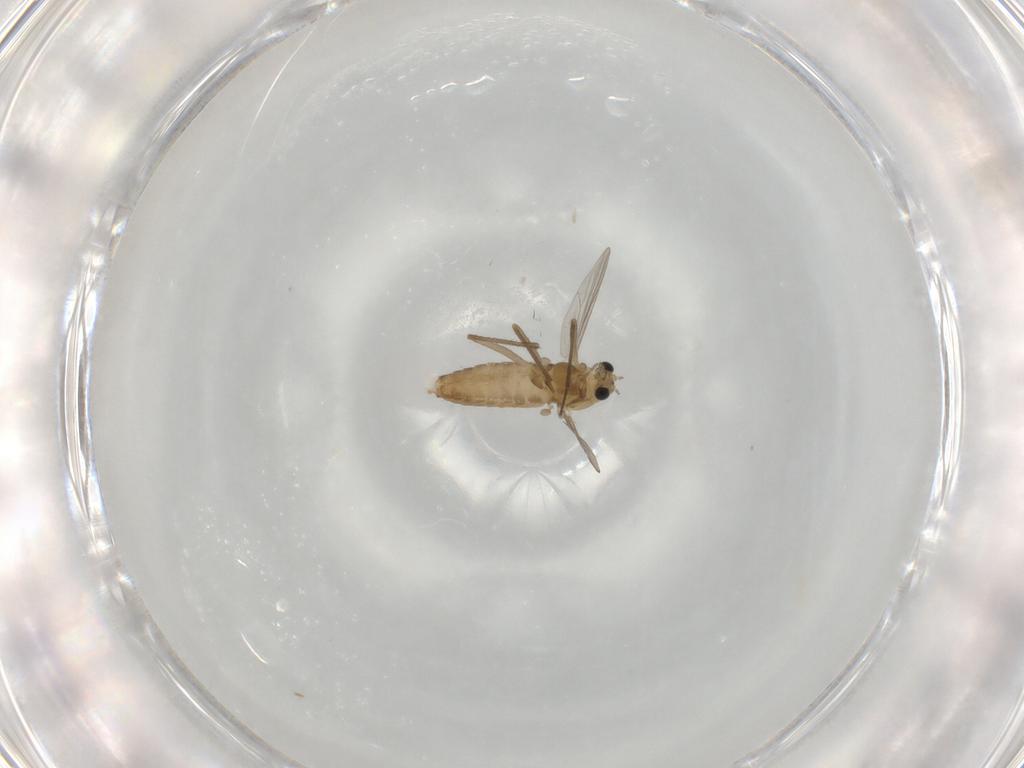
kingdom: Animalia
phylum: Arthropoda
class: Insecta
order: Diptera
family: Chironomidae
